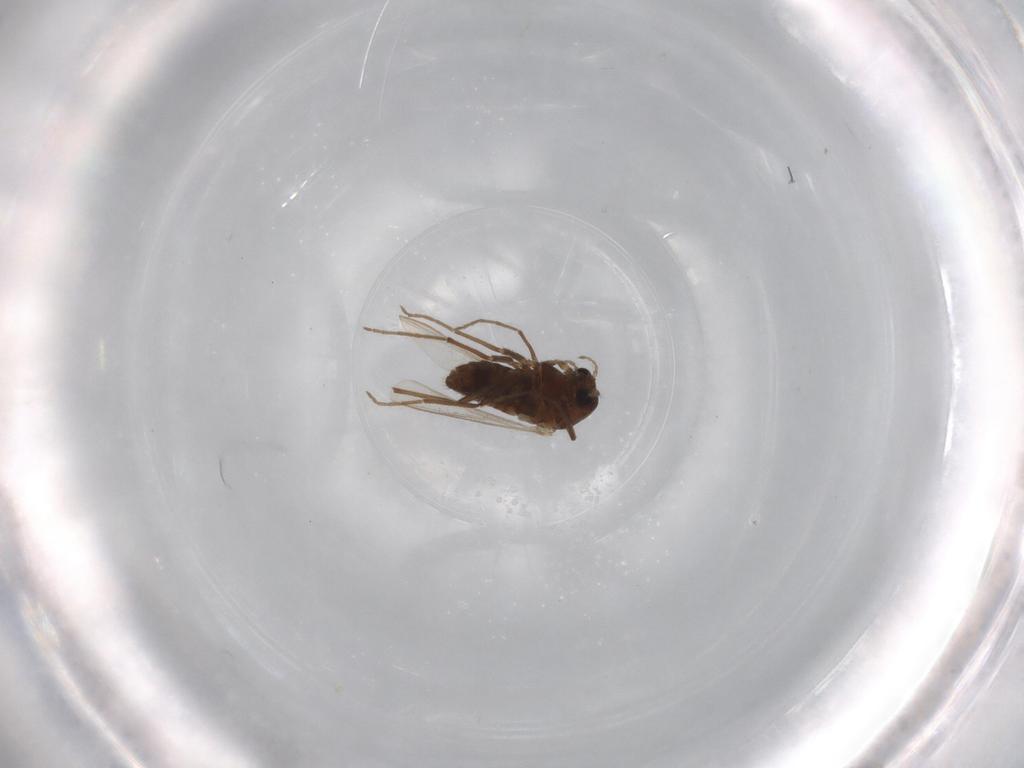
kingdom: Animalia
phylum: Arthropoda
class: Insecta
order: Diptera
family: Chironomidae
